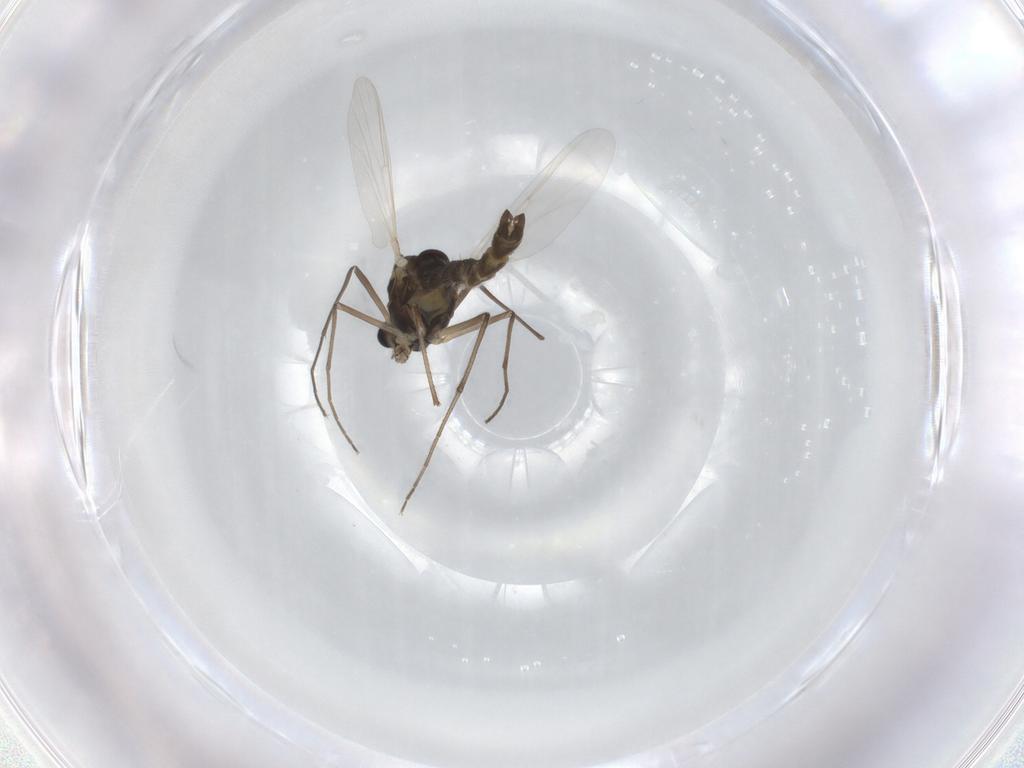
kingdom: Animalia
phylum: Arthropoda
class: Insecta
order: Diptera
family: Chironomidae
